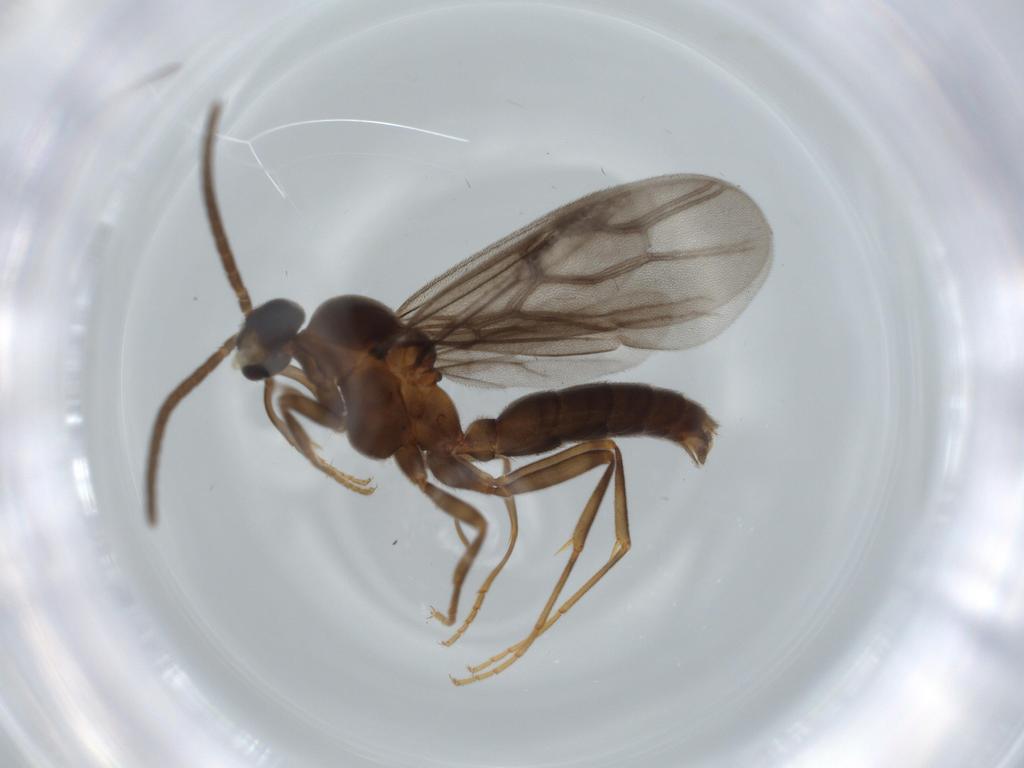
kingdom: Animalia
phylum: Arthropoda
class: Insecta
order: Hymenoptera
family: Formicidae
